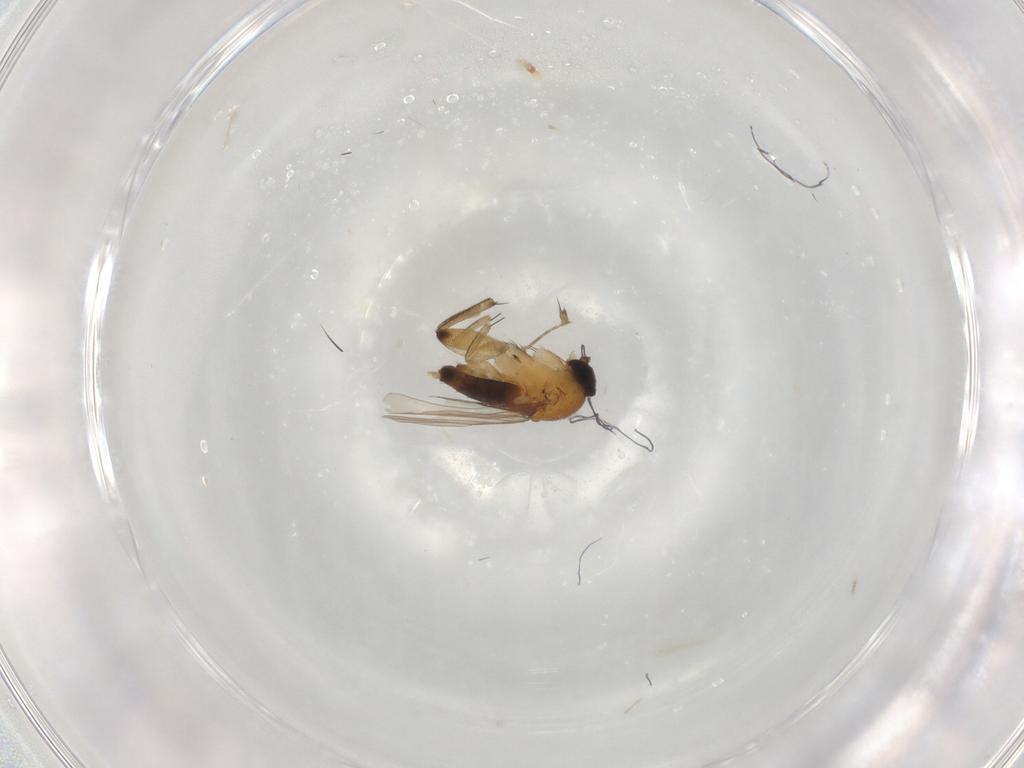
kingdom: Animalia
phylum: Arthropoda
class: Insecta
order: Diptera
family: Phoridae
